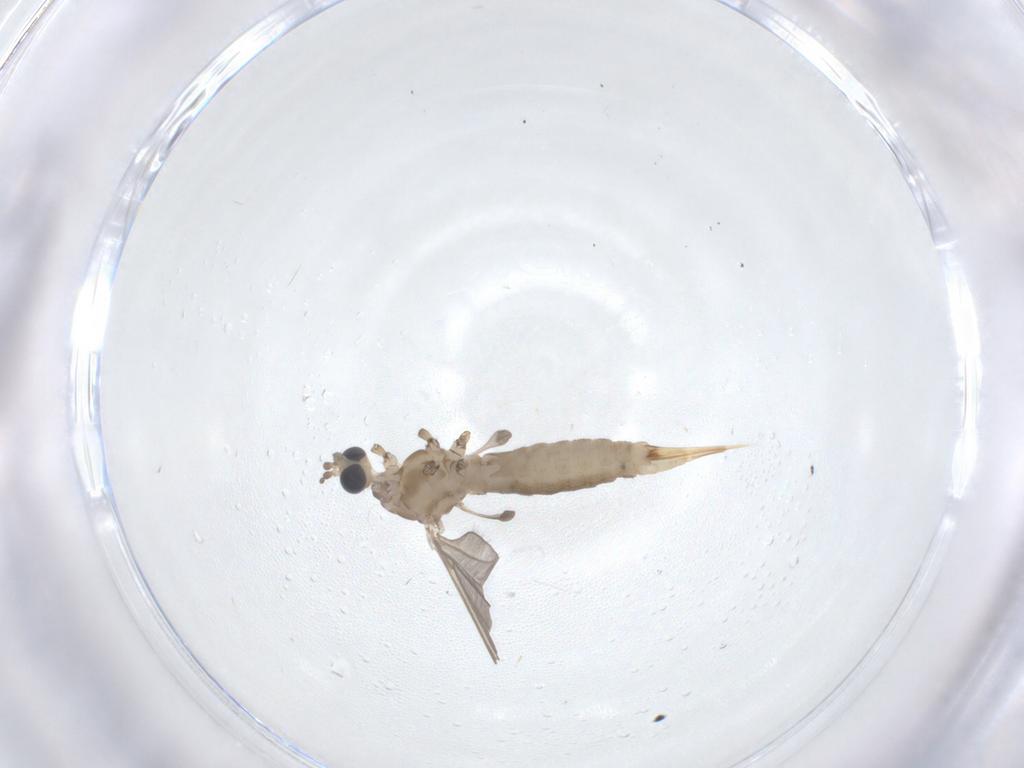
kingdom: Animalia
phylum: Arthropoda
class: Insecta
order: Diptera
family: Limoniidae
